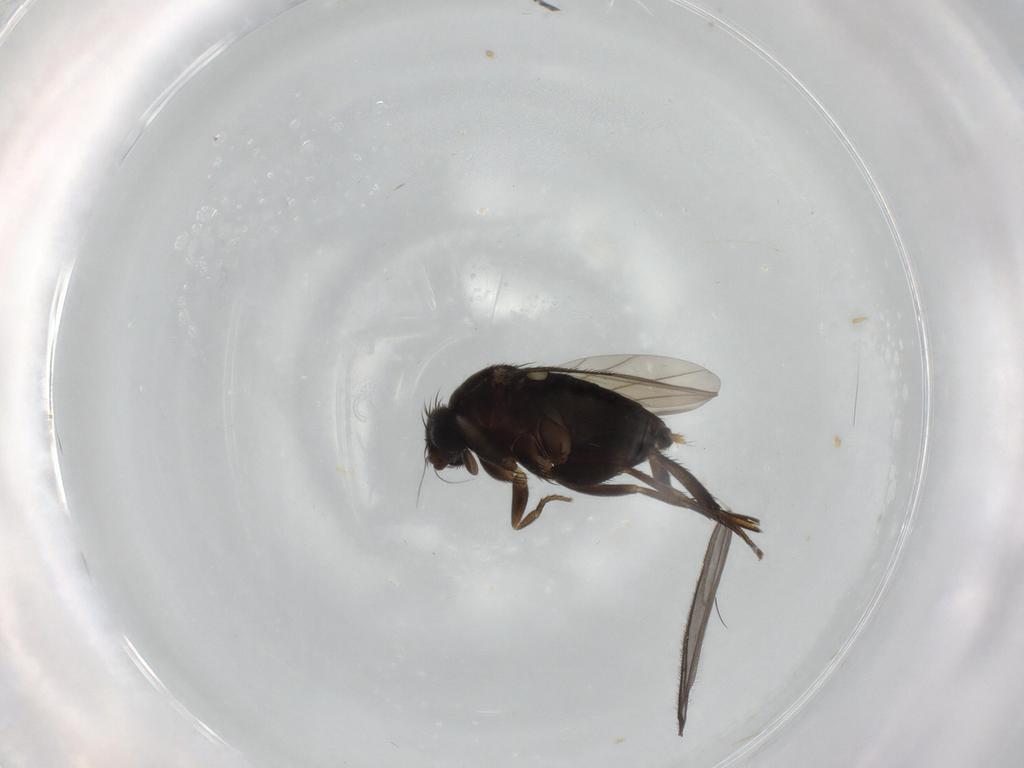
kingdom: Animalia
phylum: Arthropoda
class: Insecta
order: Diptera
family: Phoridae
